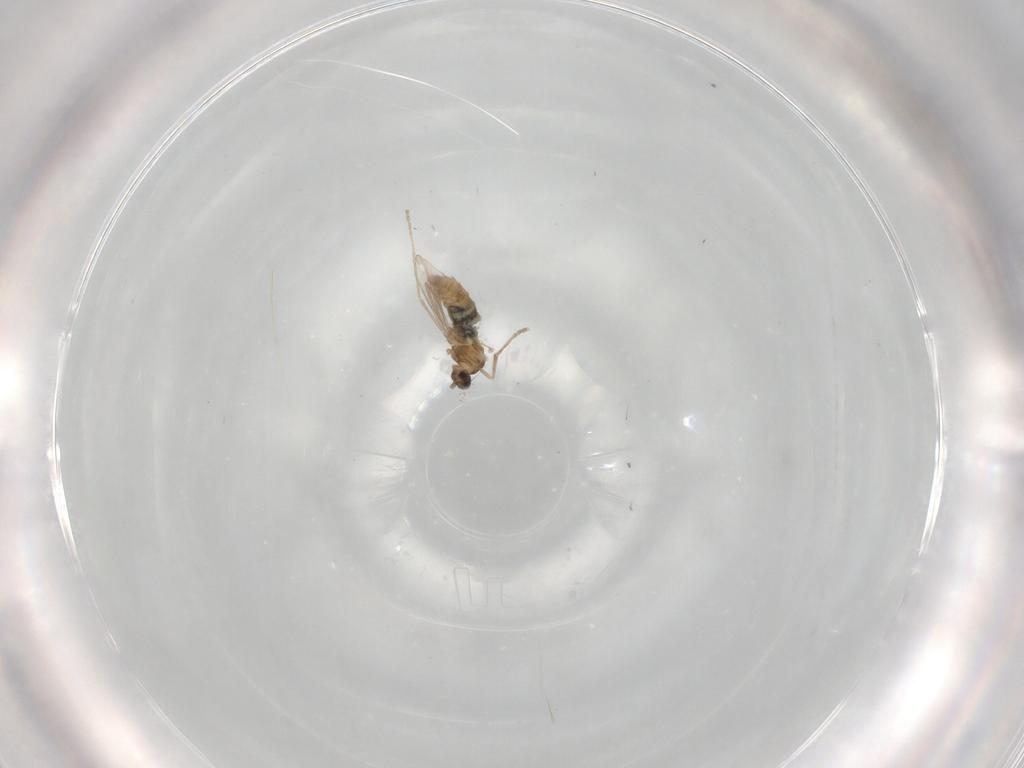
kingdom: Animalia
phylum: Arthropoda
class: Insecta
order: Diptera
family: Cecidomyiidae
